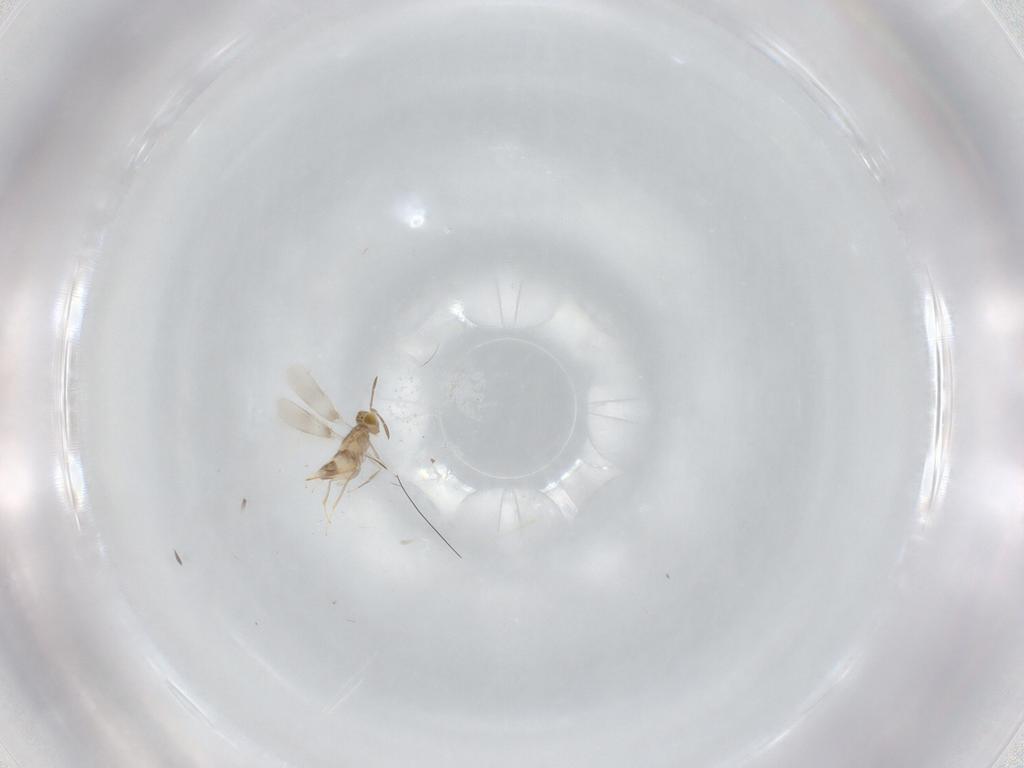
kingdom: Animalia
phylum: Arthropoda
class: Insecta
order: Hymenoptera
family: Aphelinidae
